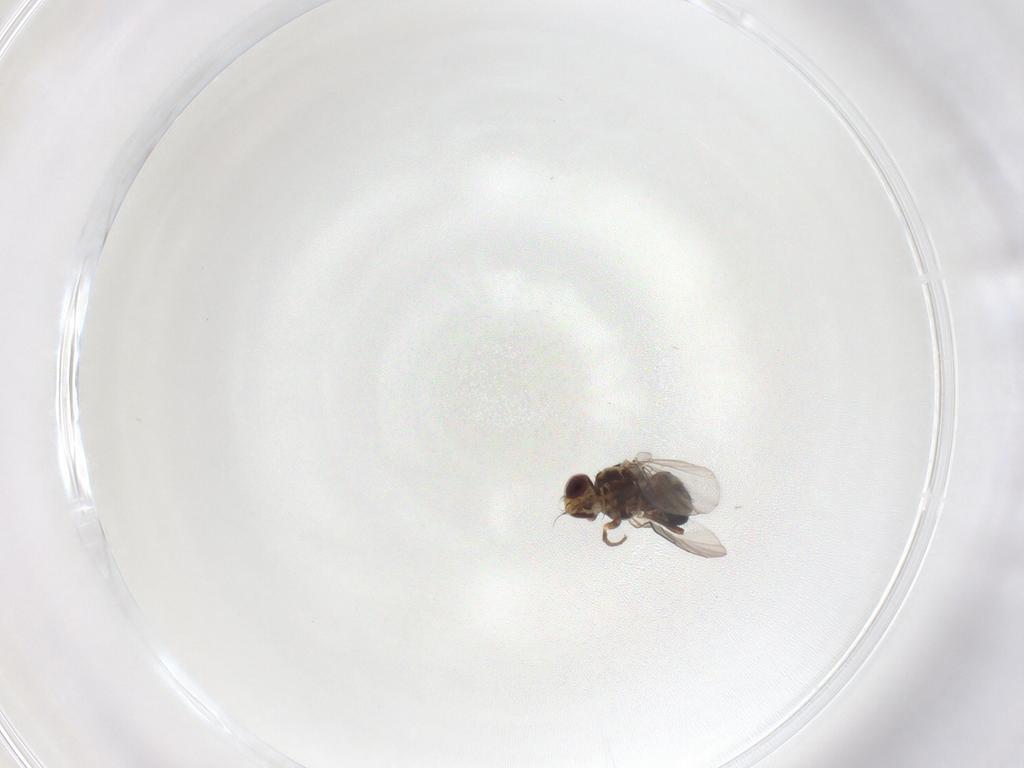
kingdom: Animalia
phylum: Arthropoda
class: Insecta
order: Diptera
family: Agromyzidae
